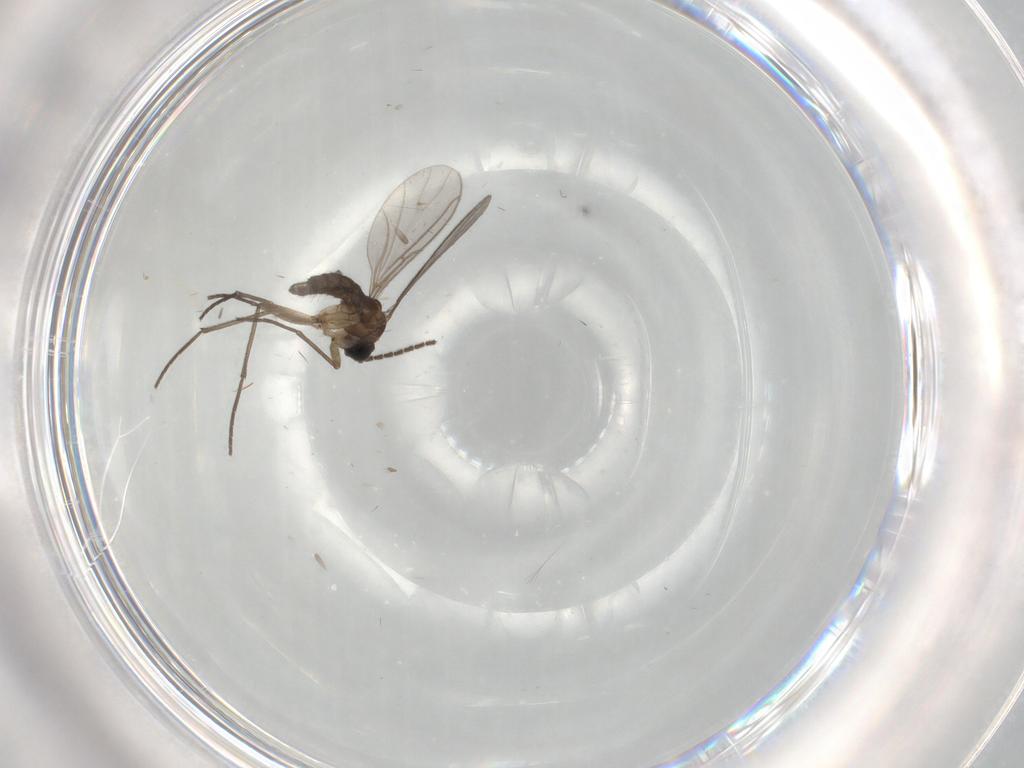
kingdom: Animalia
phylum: Arthropoda
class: Insecta
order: Diptera
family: Sciaridae
